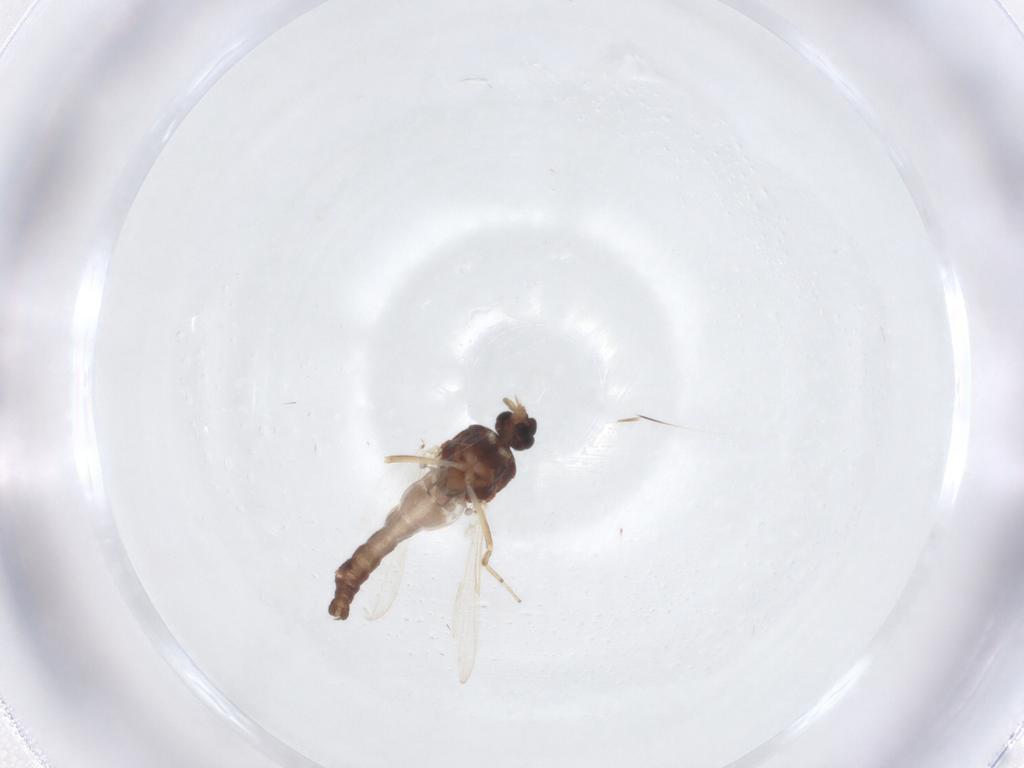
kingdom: Animalia
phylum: Arthropoda
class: Insecta
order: Diptera
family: Ceratopogonidae
